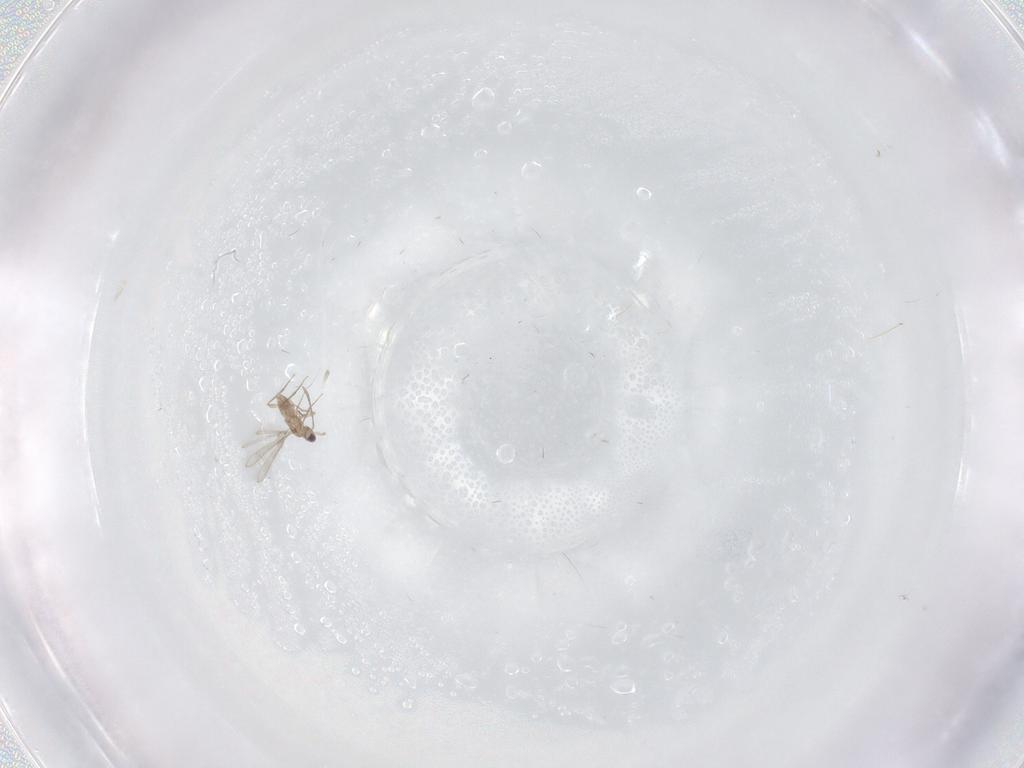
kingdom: Animalia
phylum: Arthropoda
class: Insecta
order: Hymenoptera
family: Mymaridae
